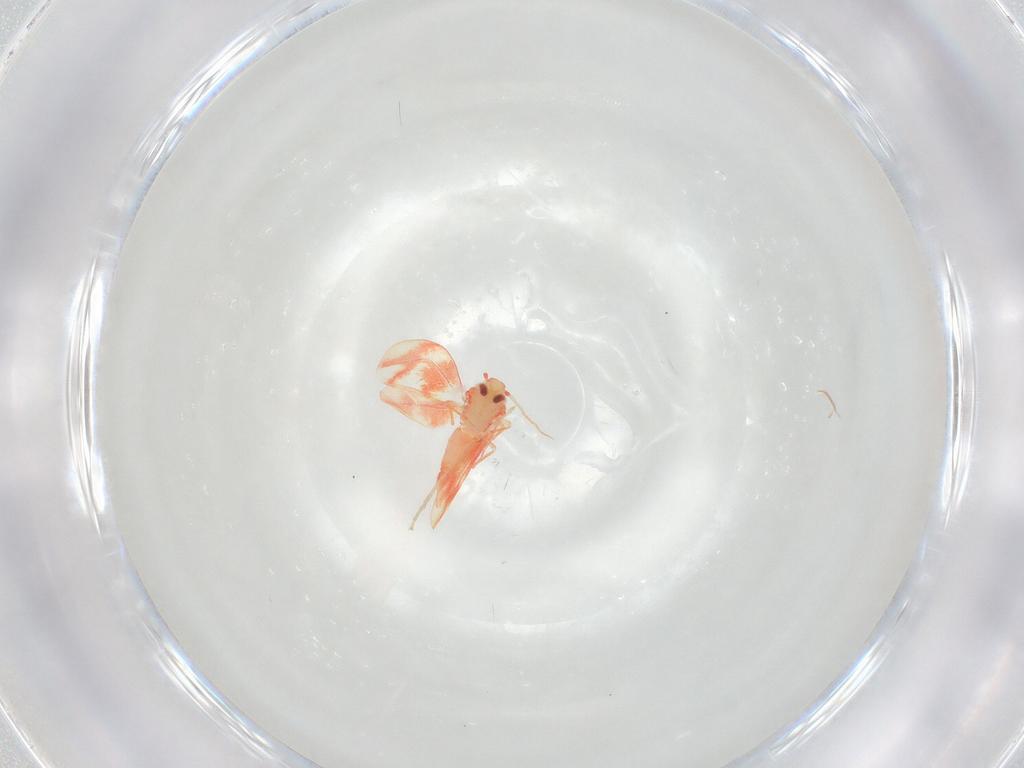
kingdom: Animalia
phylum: Arthropoda
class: Insecta
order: Hemiptera
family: Aleyrodidae
